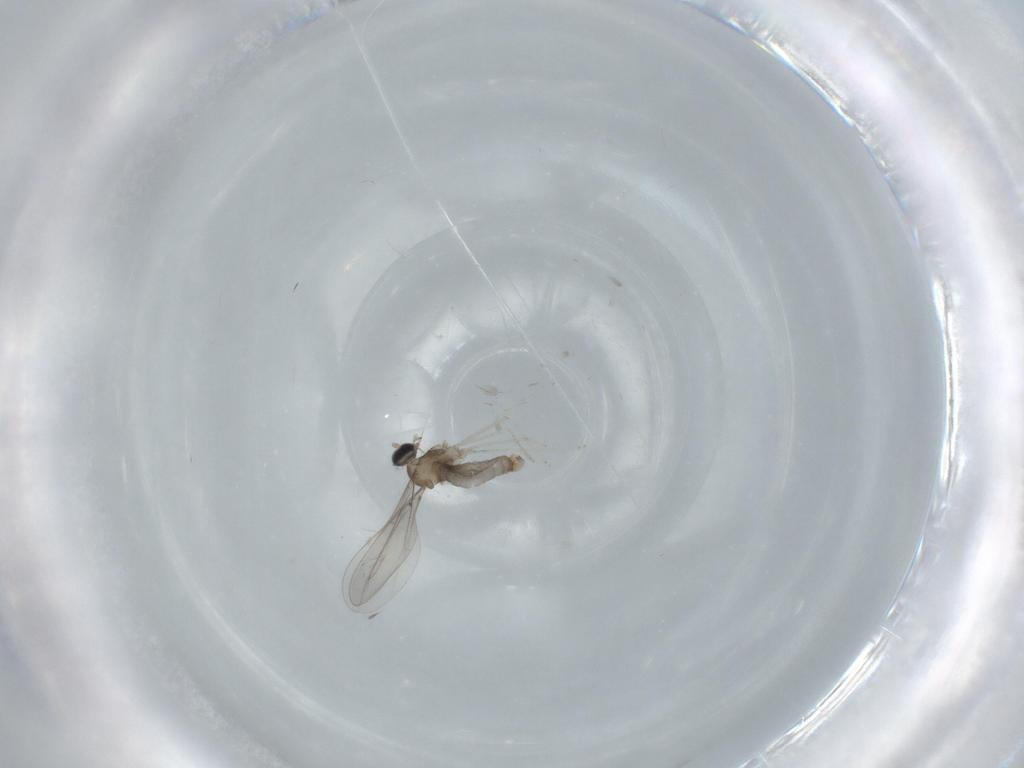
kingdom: Animalia
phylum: Arthropoda
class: Insecta
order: Diptera
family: Cecidomyiidae
